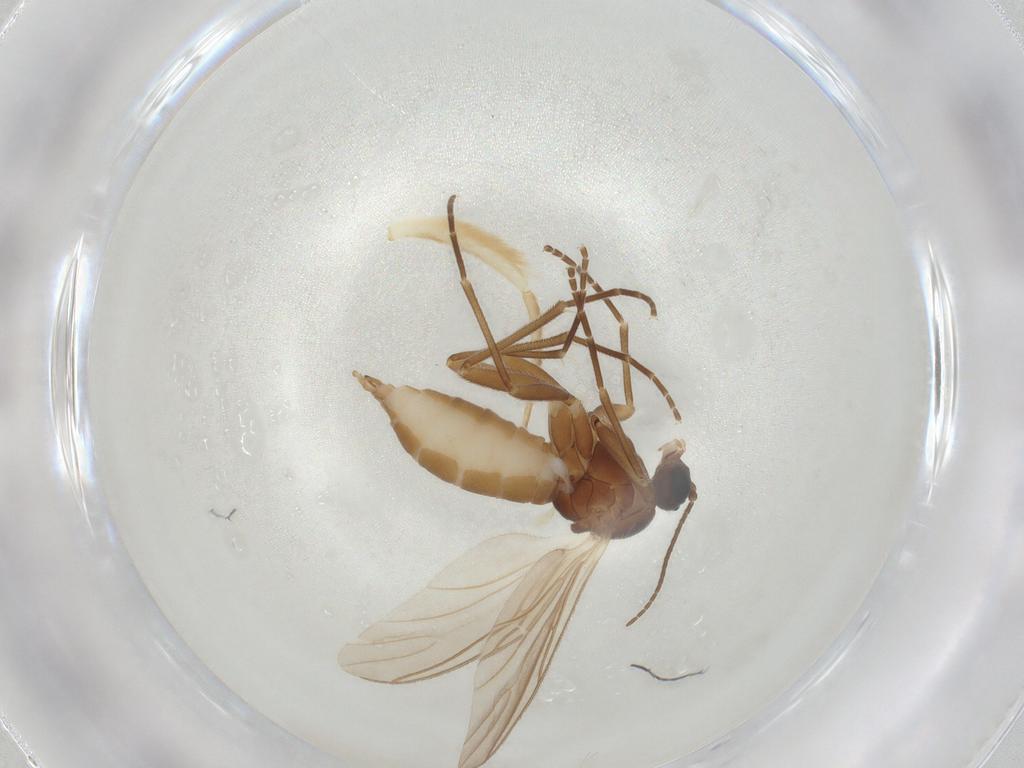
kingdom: Animalia
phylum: Arthropoda
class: Insecta
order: Diptera
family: Sciaridae
